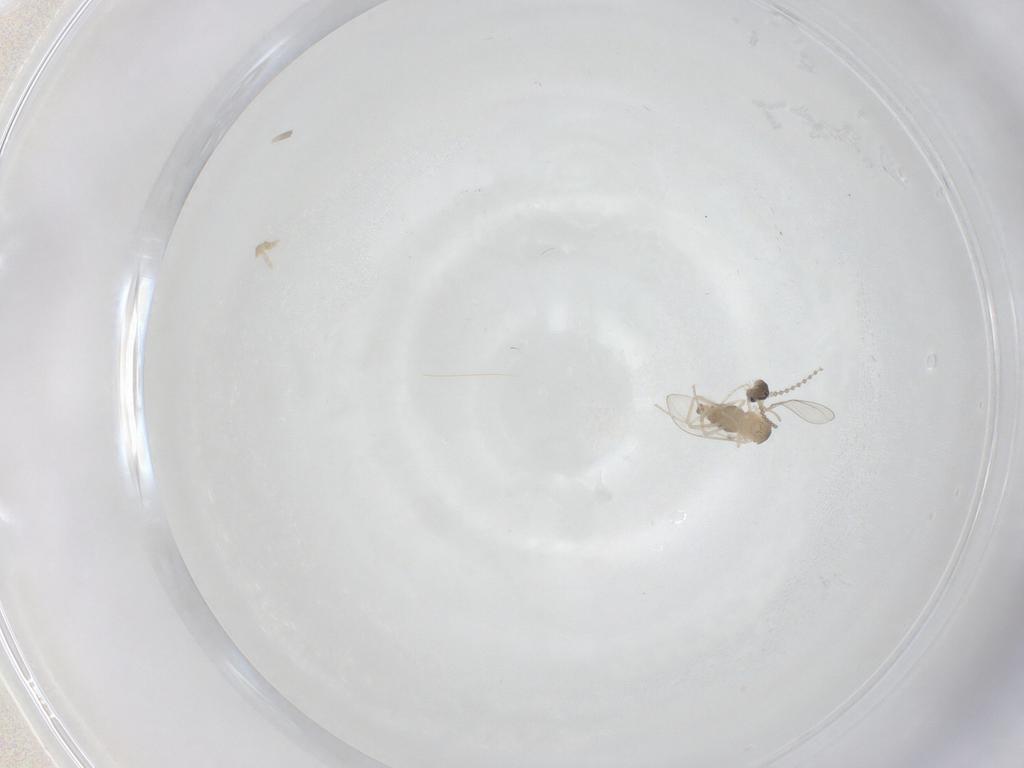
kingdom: Animalia
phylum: Arthropoda
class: Insecta
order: Diptera
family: Cecidomyiidae
